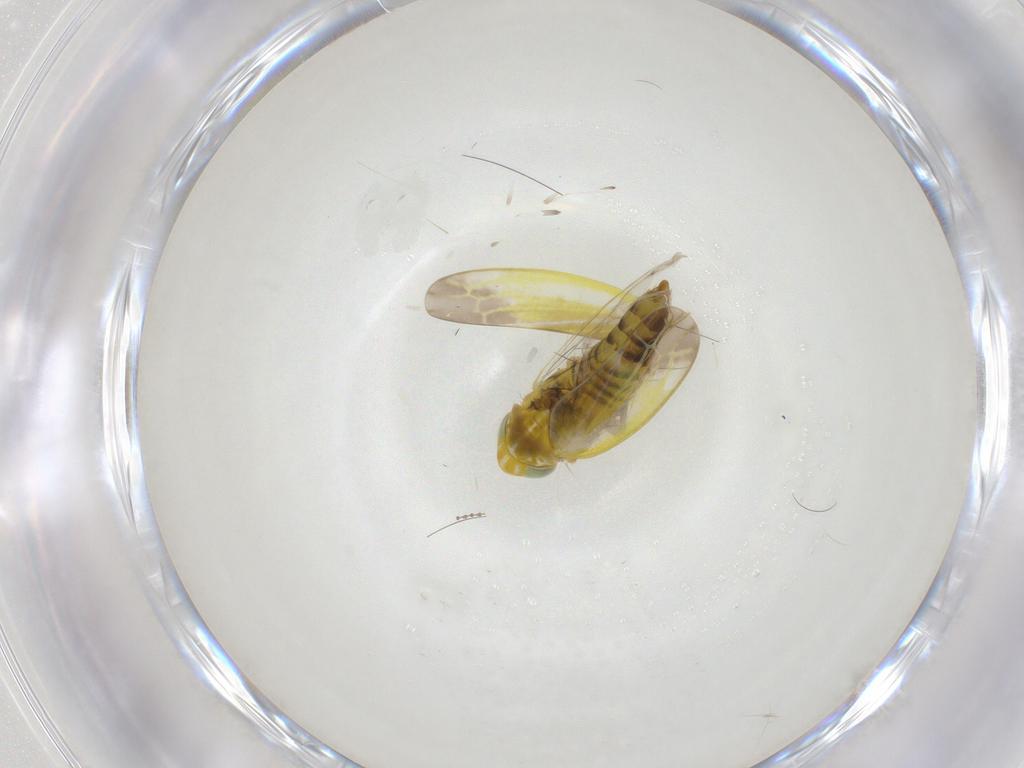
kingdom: Animalia
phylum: Arthropoda
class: Insecta
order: Hemiptera
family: Cicadellidae
